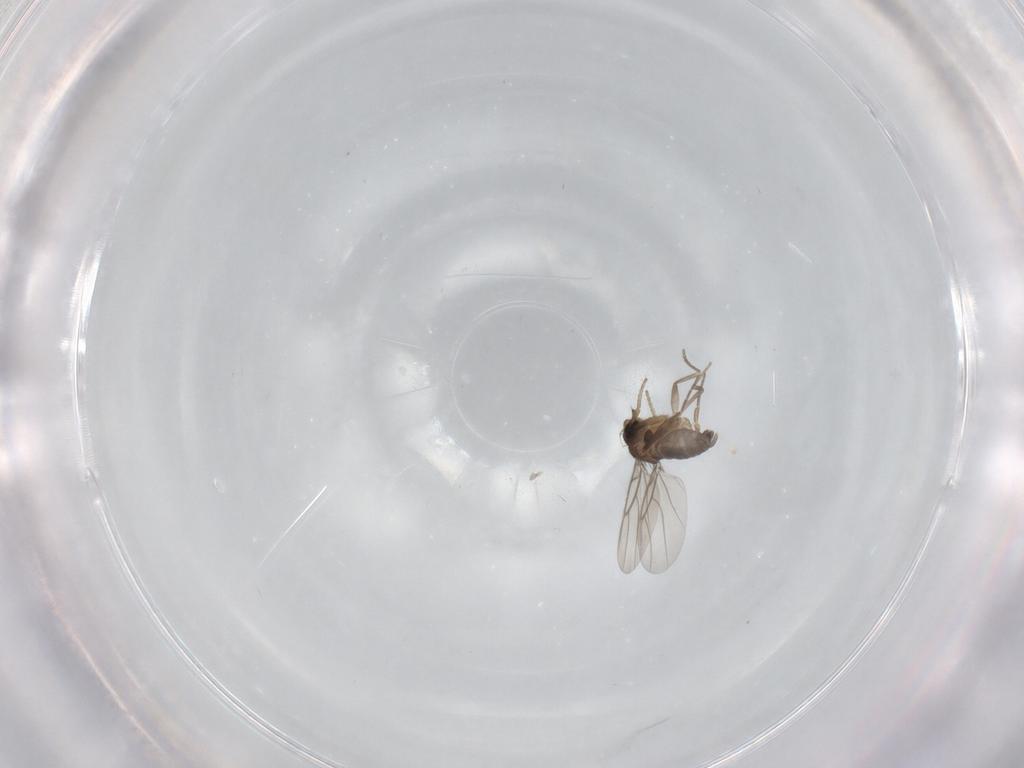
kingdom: Animalia
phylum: Arthropoda
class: Insecta
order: Diptera
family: Phoridae
